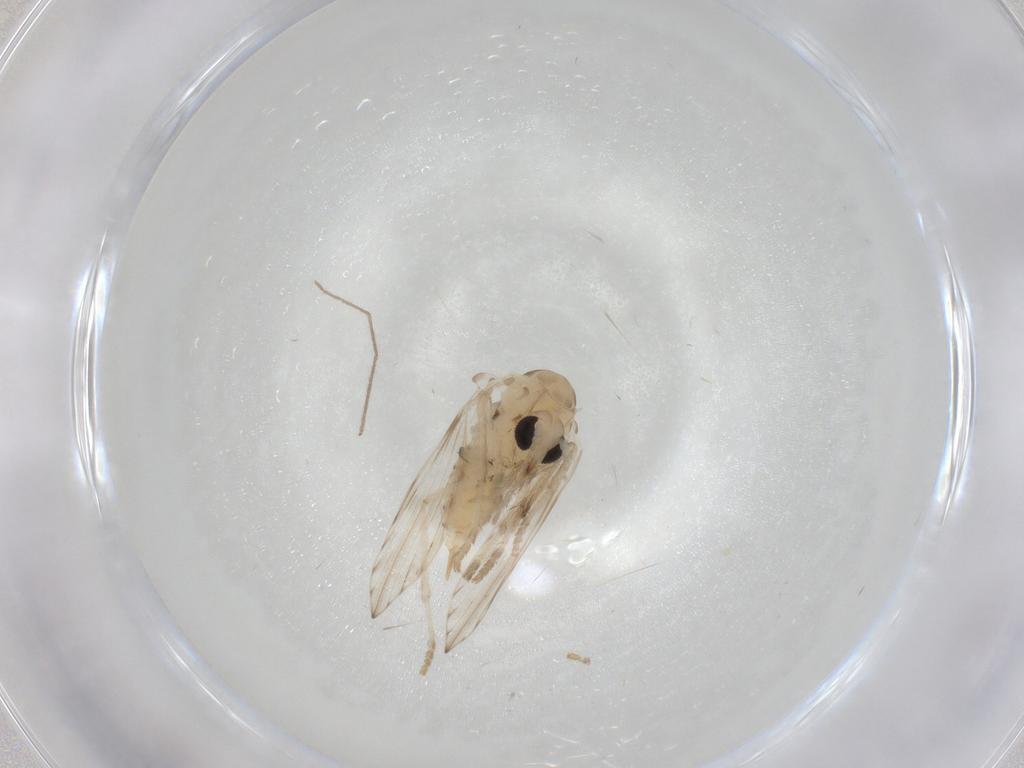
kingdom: Animalia
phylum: Arthropoda
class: Insecta
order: Diptera
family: Psychodidae
